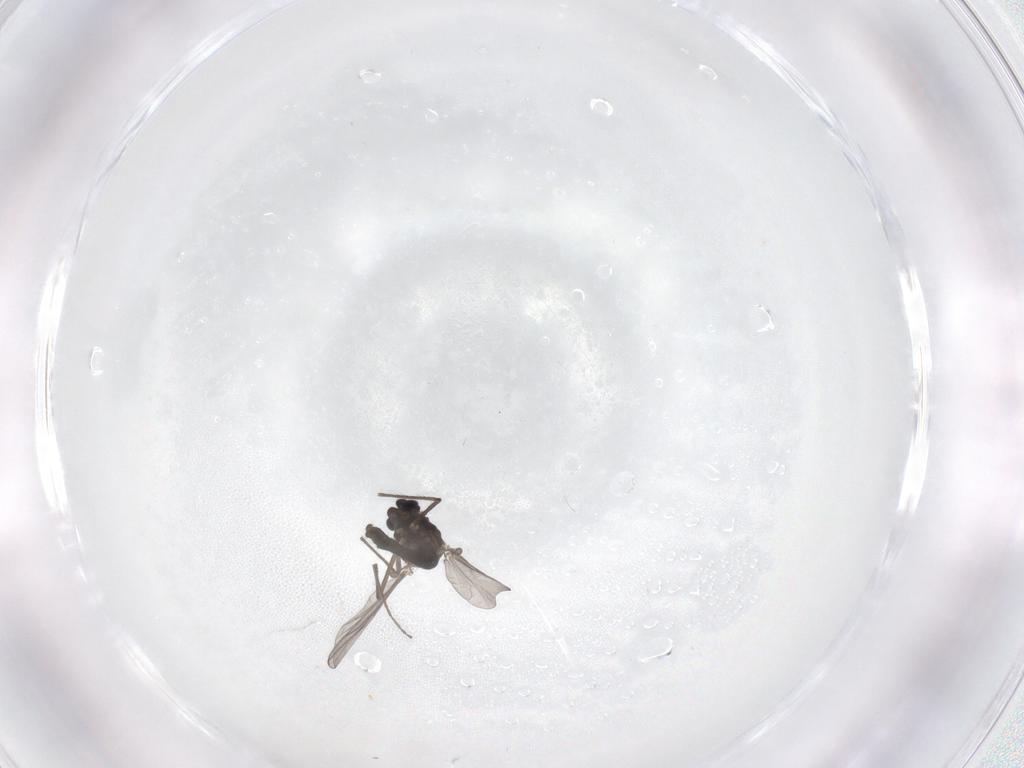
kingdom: Animalia
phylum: Arthropoda
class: Insecta
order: Diptera
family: Chironomidae
